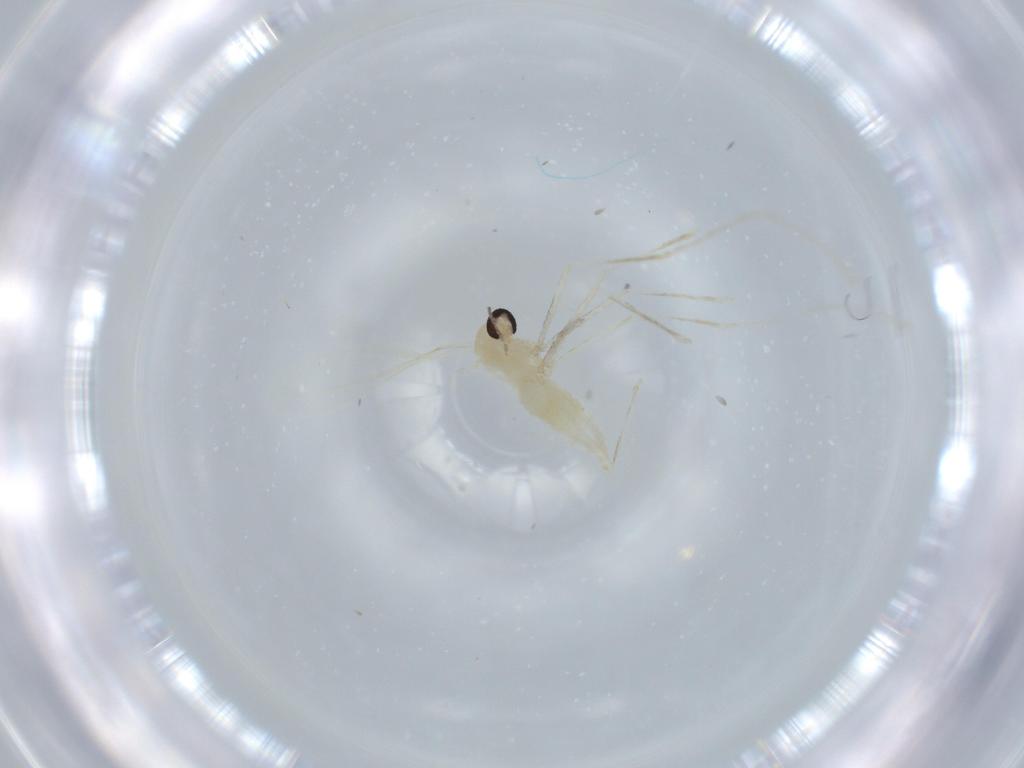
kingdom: Animalia
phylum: Arthropoda
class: Insecta
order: Diptera
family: Cecidomyiidae
